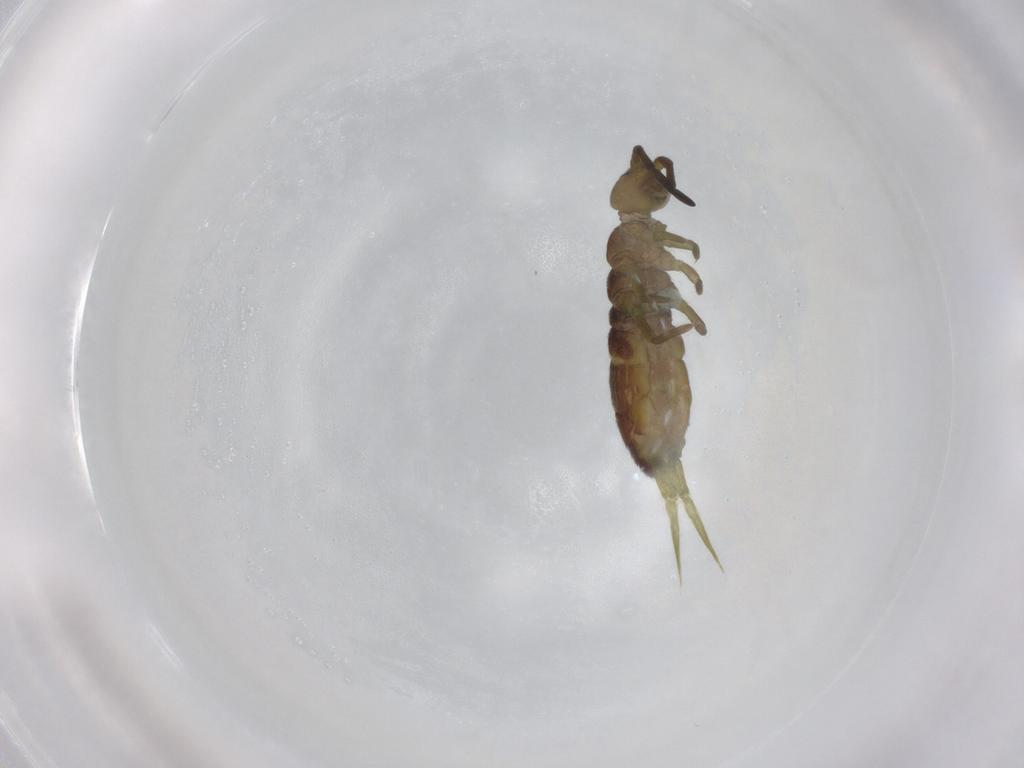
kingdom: Animalia
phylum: Arthropoda
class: Collembola
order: Entomobryomorpha
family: Isotomidae
